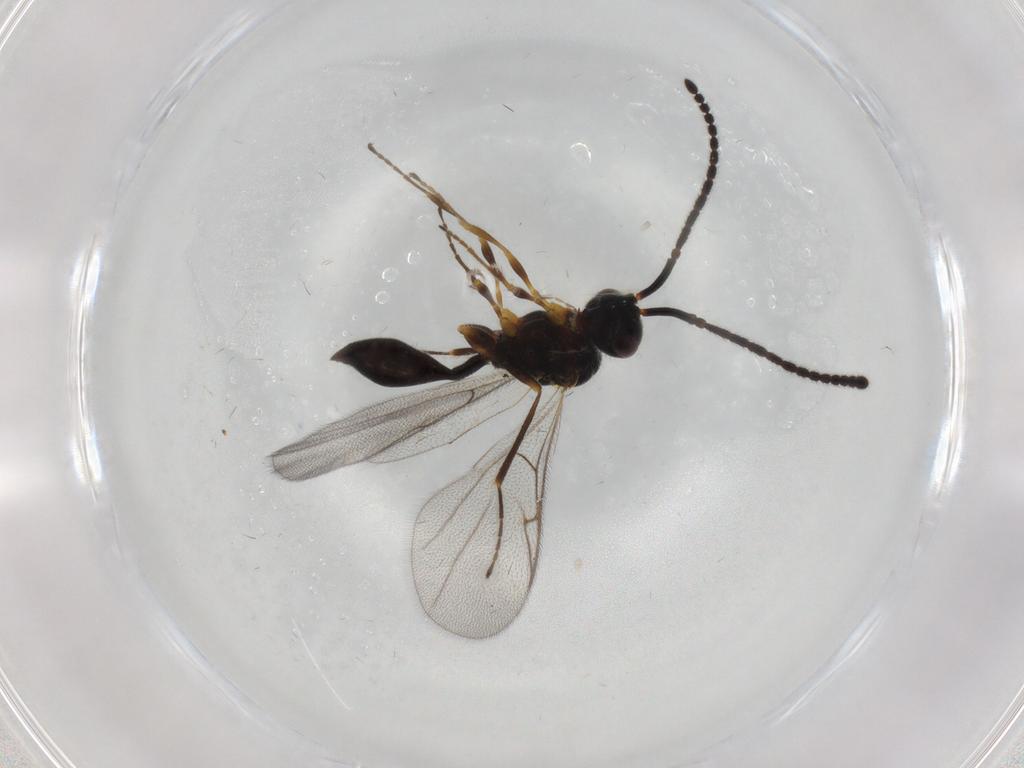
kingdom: Animalia
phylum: Arthropoda
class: Insecta
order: Hymenoptera
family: Diapriidae
